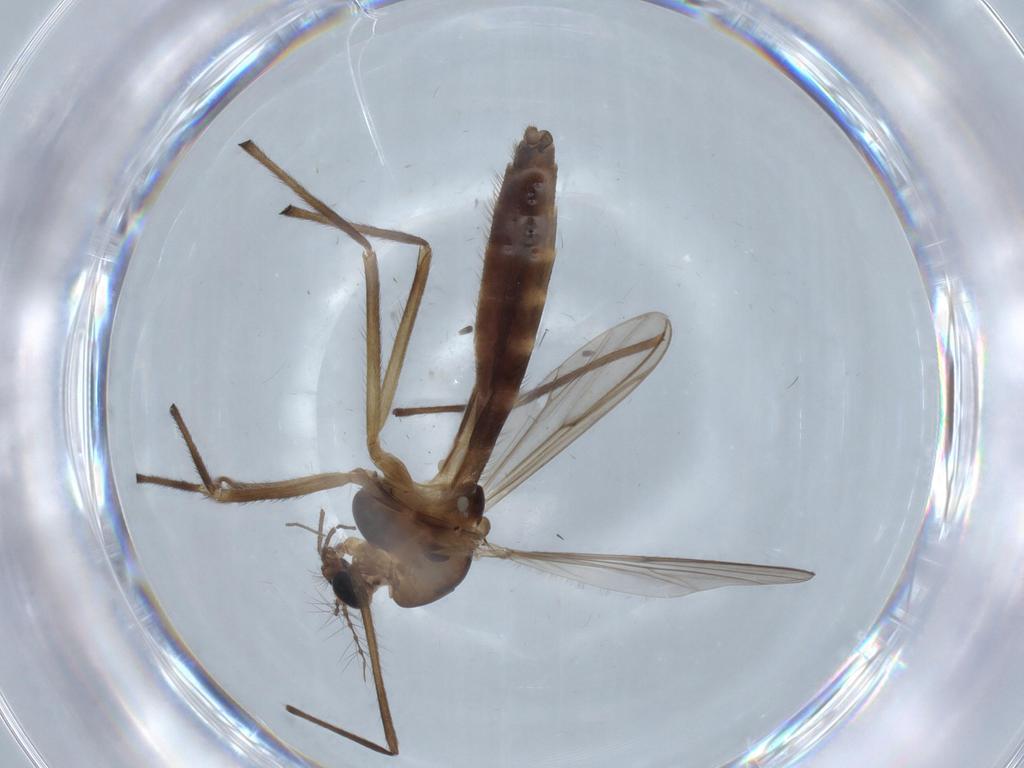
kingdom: Animalia
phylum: Arthropoda
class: Insecta
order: Diptera
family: Chironomidae
